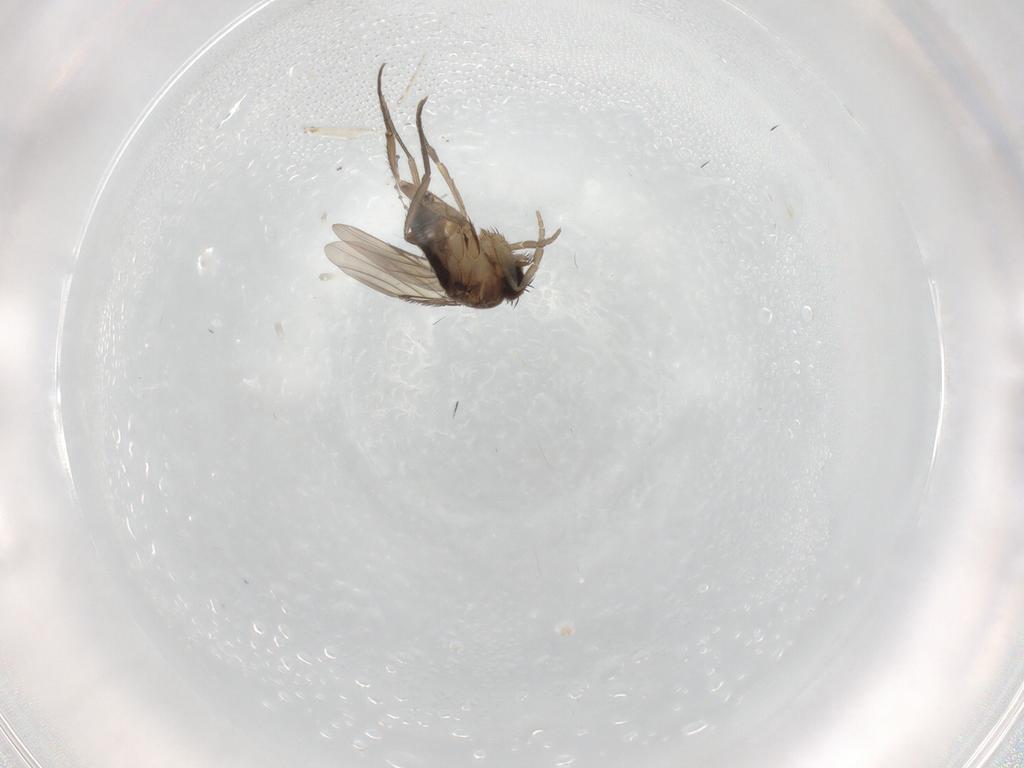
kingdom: Animalia
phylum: Arthropoda
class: Insecta
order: Diptera
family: Phoridae
